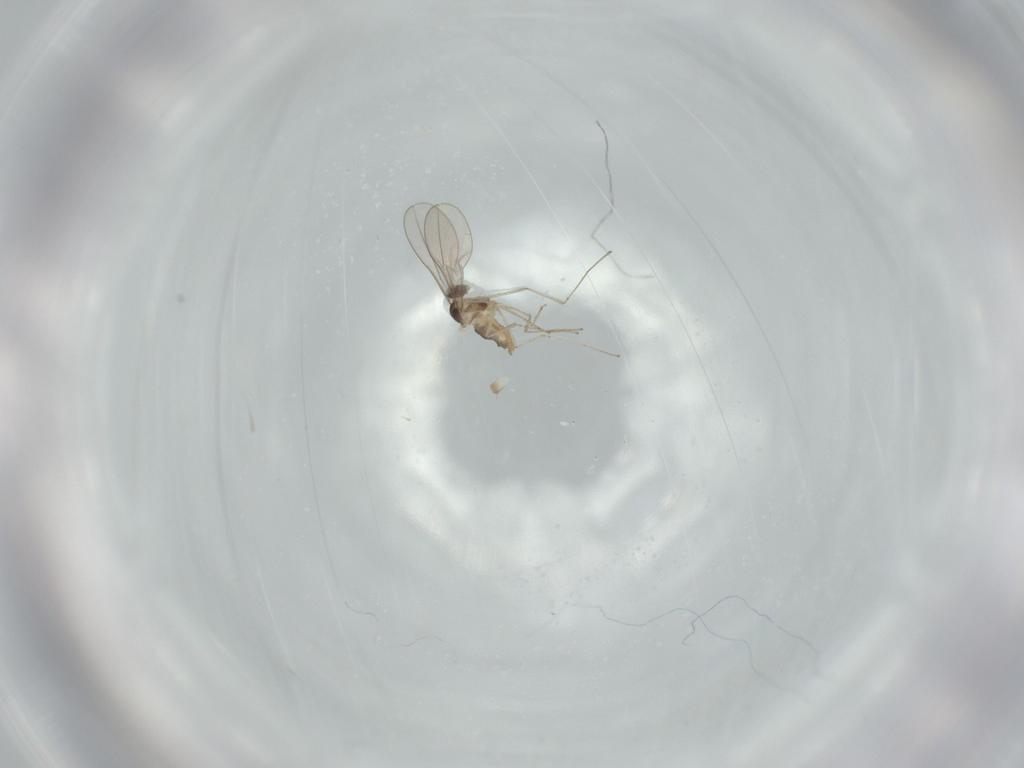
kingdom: Animalia
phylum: Arthropoda
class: Insecta
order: Diptera
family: Cecidomyiidae
